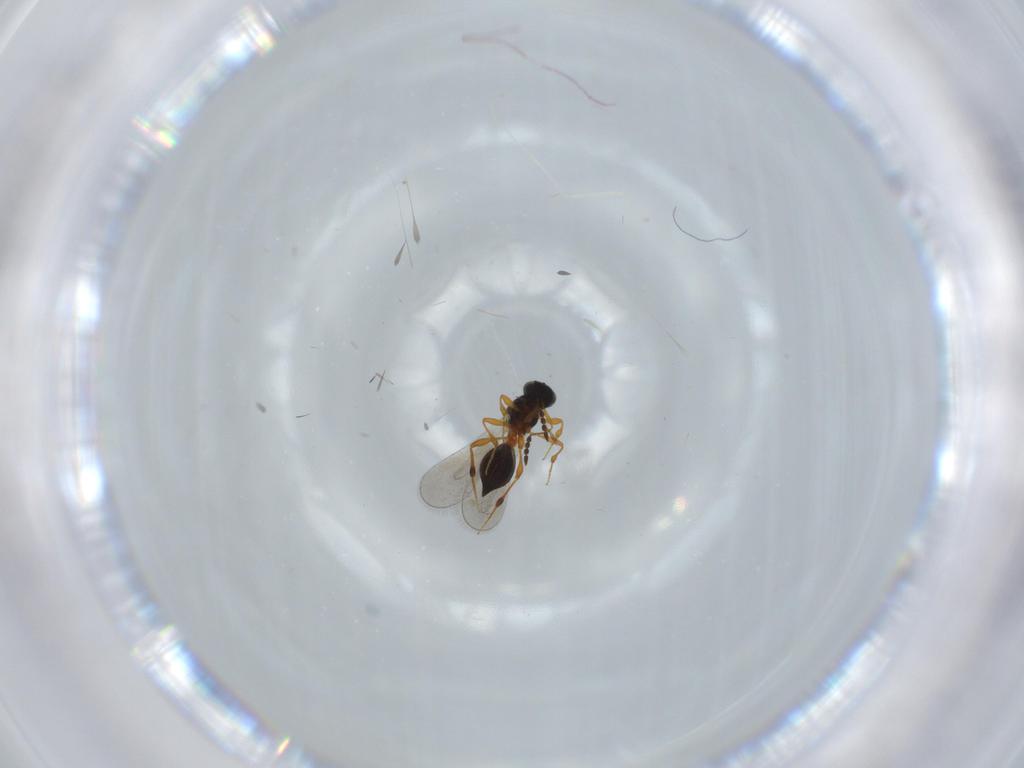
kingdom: Animalia
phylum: Arthropoda
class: Insecta
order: Hymenoptera
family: Platygastridae
